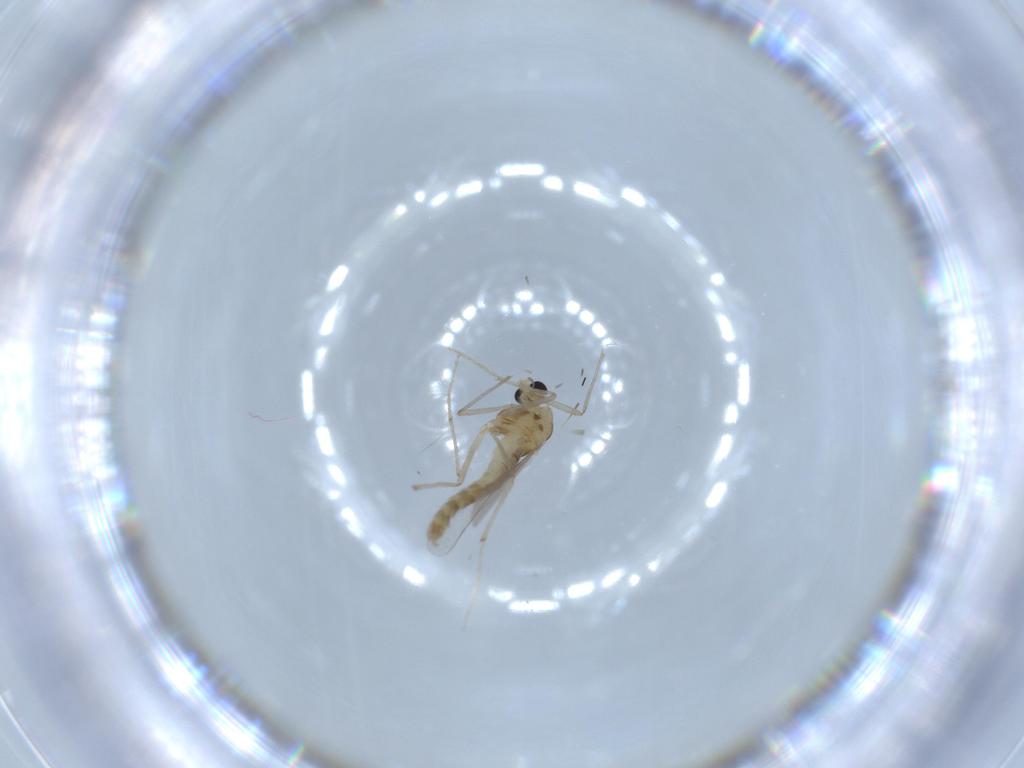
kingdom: Animalia
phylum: Arthropoda
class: Insecta
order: Diptera
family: Chironomidae
